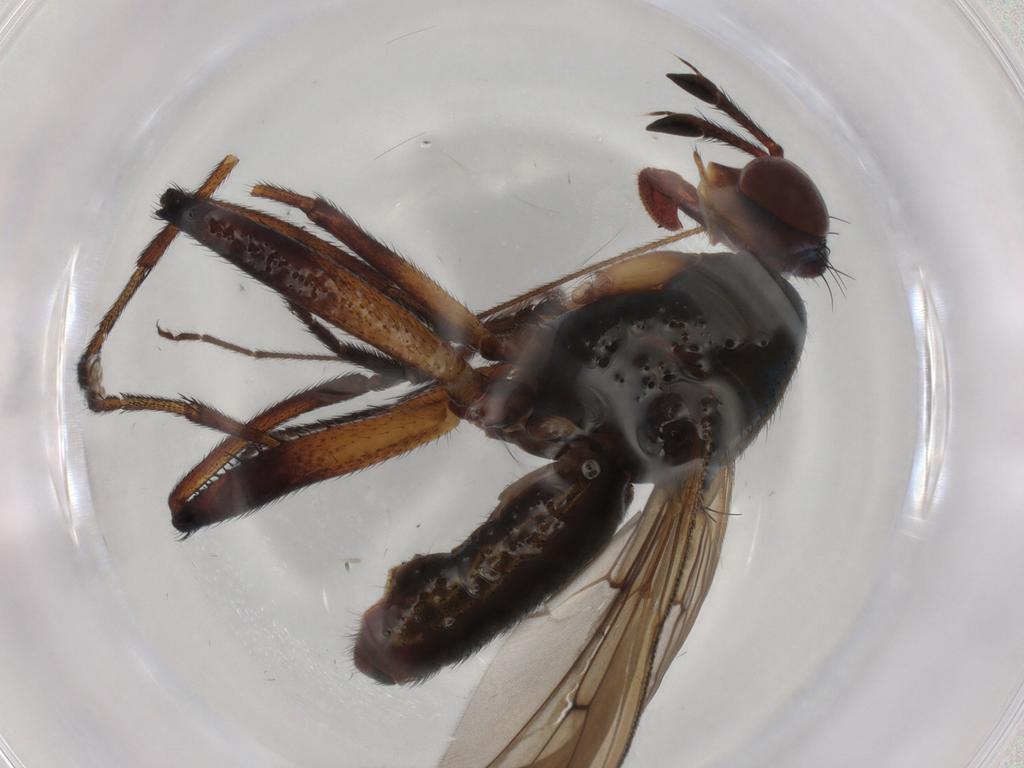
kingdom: Animalia
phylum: Arthropoda
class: Insecta
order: Diptera
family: Sciomyzidae
